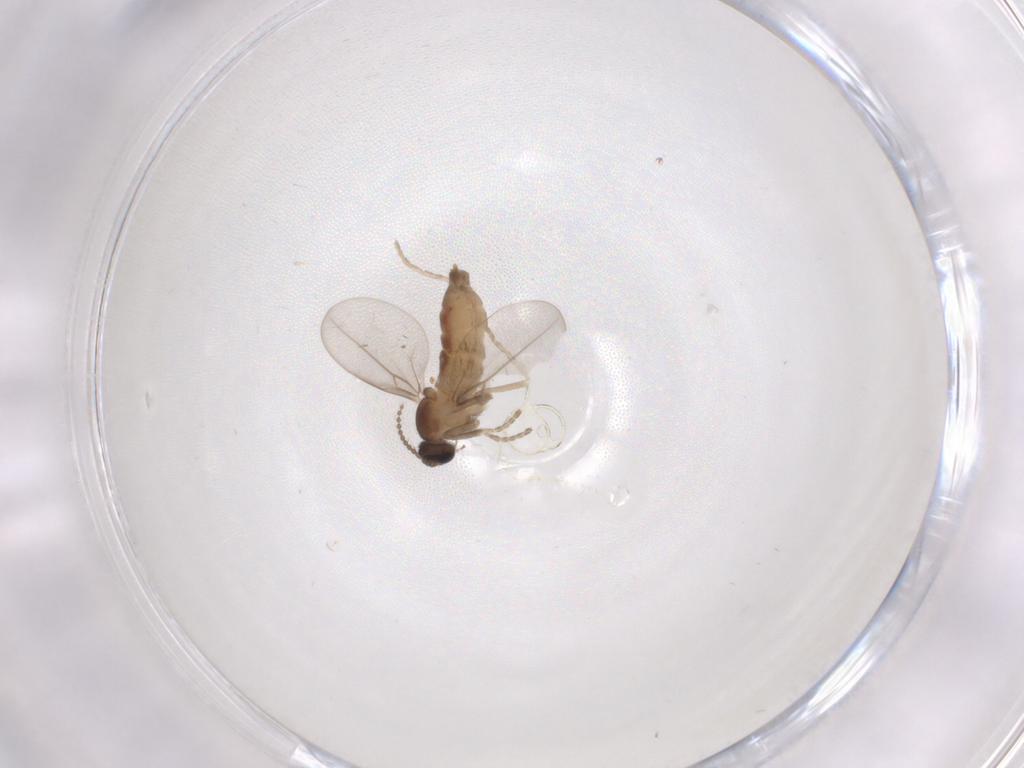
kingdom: Animalia
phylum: Arthropoda
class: Insecta
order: Diptera
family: Cecidomyiidae
